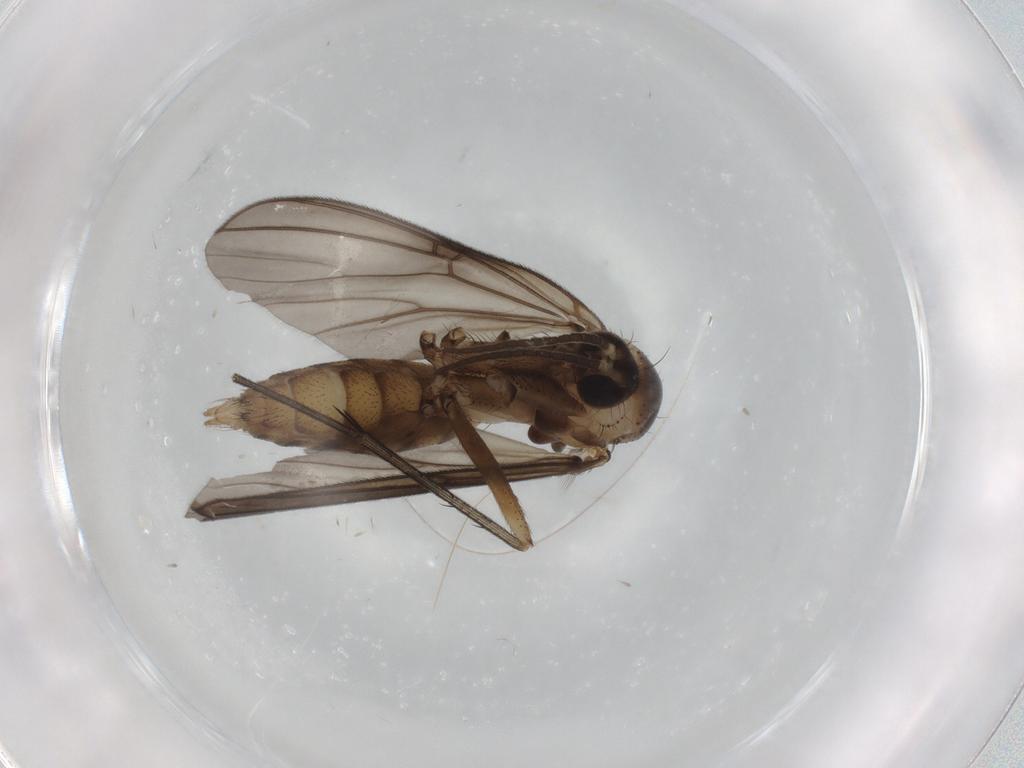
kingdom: Animalia
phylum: Arthropoda
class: Insecta
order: Diptera
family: Mycetophilidae
